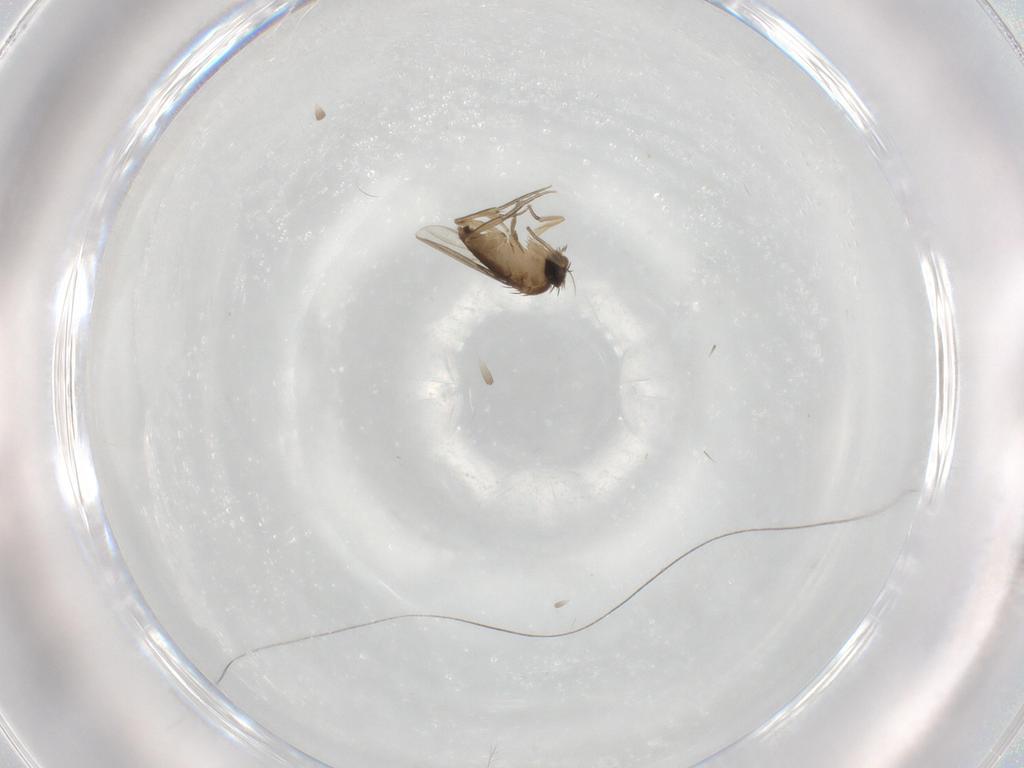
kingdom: Animalia
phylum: Arthropoda
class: Insecta
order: Diptera
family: Phoridae
